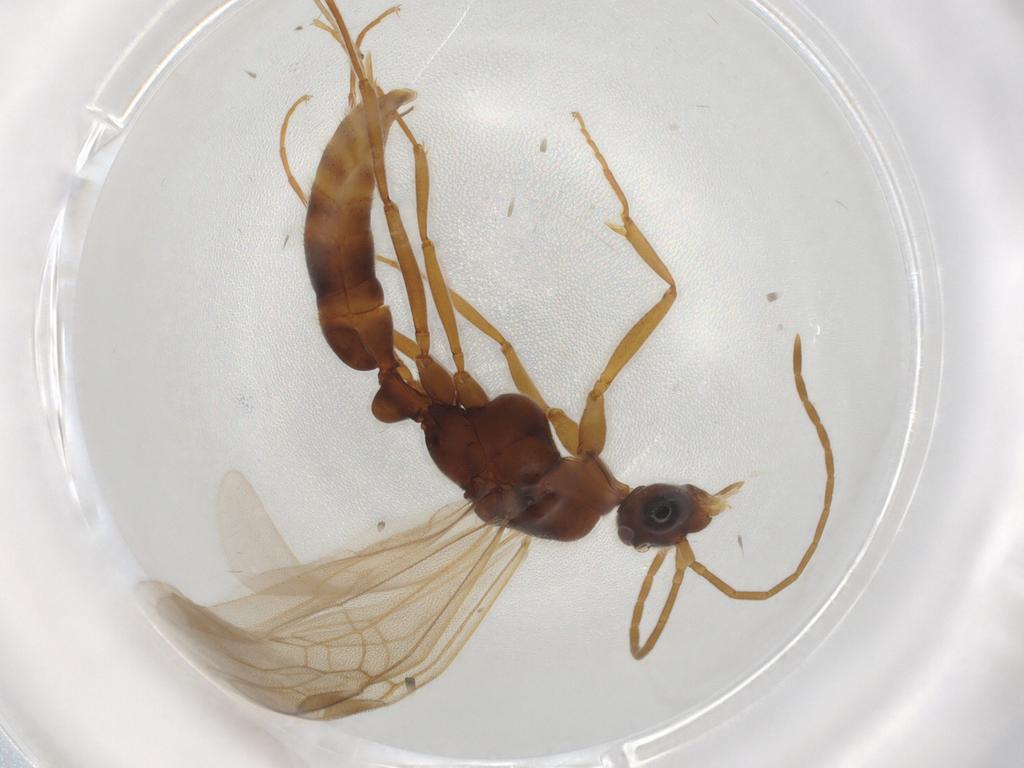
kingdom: Animalia
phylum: Arthropoda
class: Insecta
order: Hymenoptera
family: Formicidae
